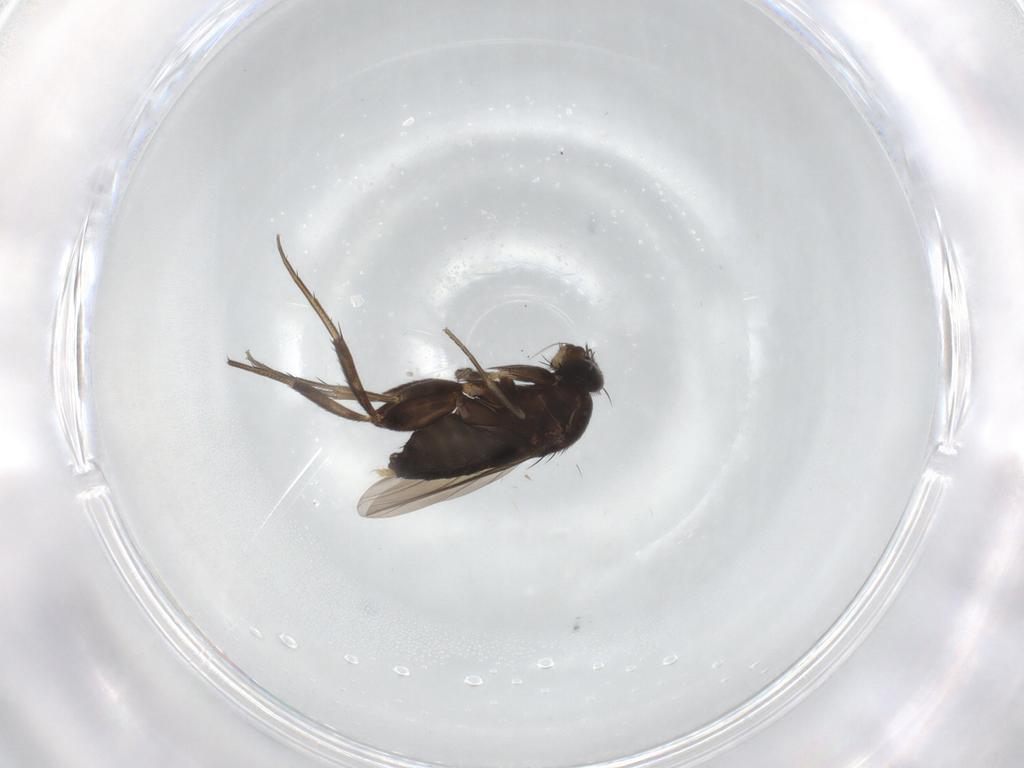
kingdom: Animalia
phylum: Arthropoda
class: Insecta
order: Diptera
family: Phoridae
